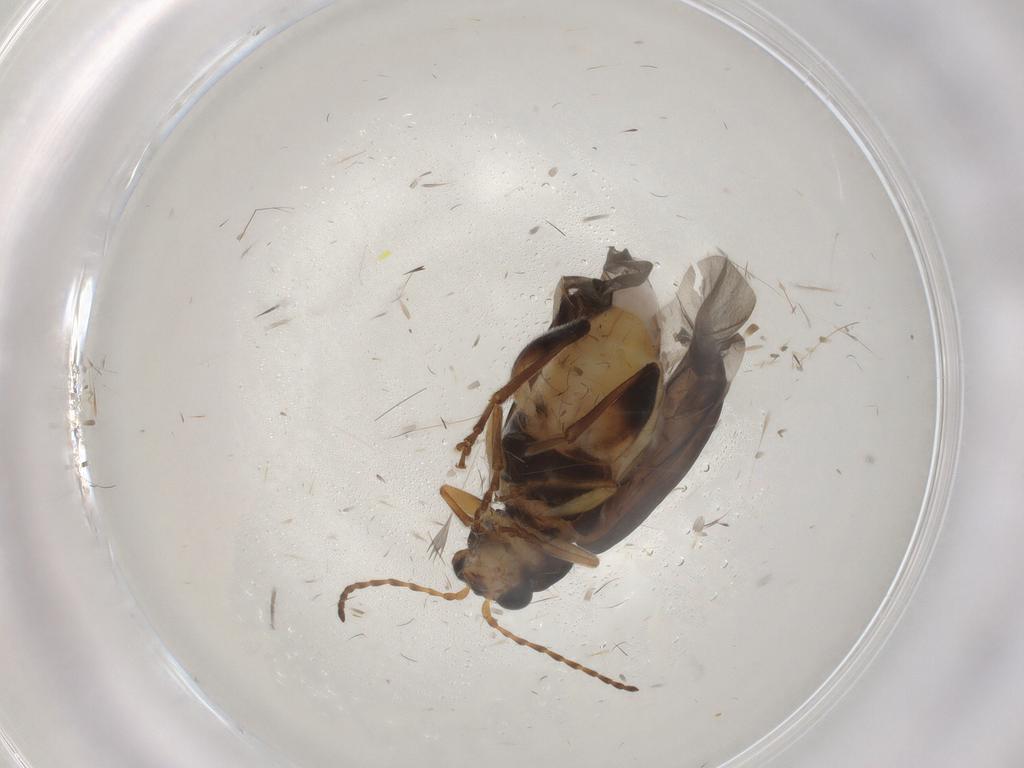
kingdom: Animalia
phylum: Arthropoda
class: Insecta
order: Coleoptera
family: Chrysomelidae
